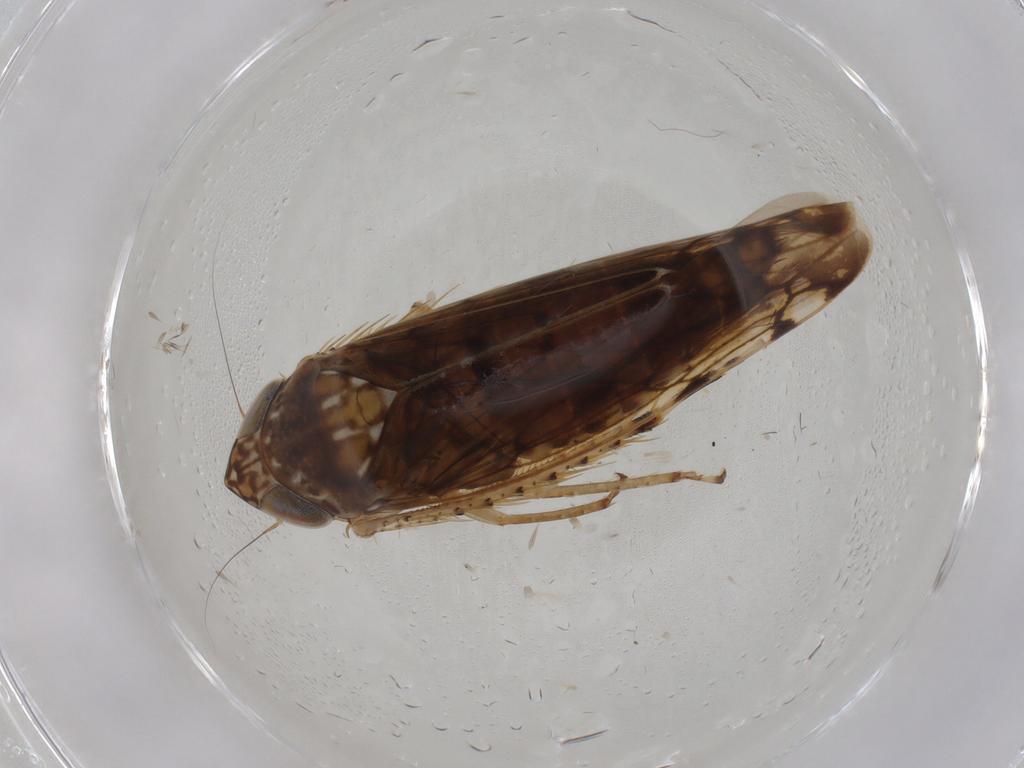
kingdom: Animalia
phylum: Arthropoda
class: Insecta
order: Hemiptera
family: Cicadellidae
